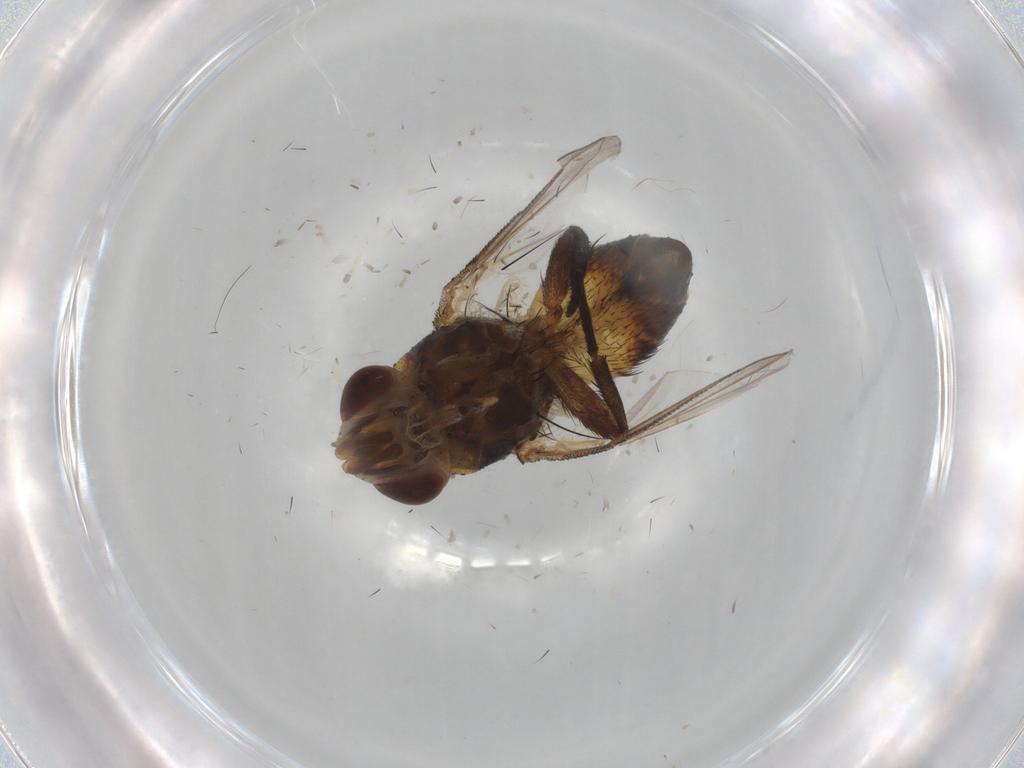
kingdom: Animalia
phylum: Arthropoda
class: Insecta
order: Diptera
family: Glossinidae
